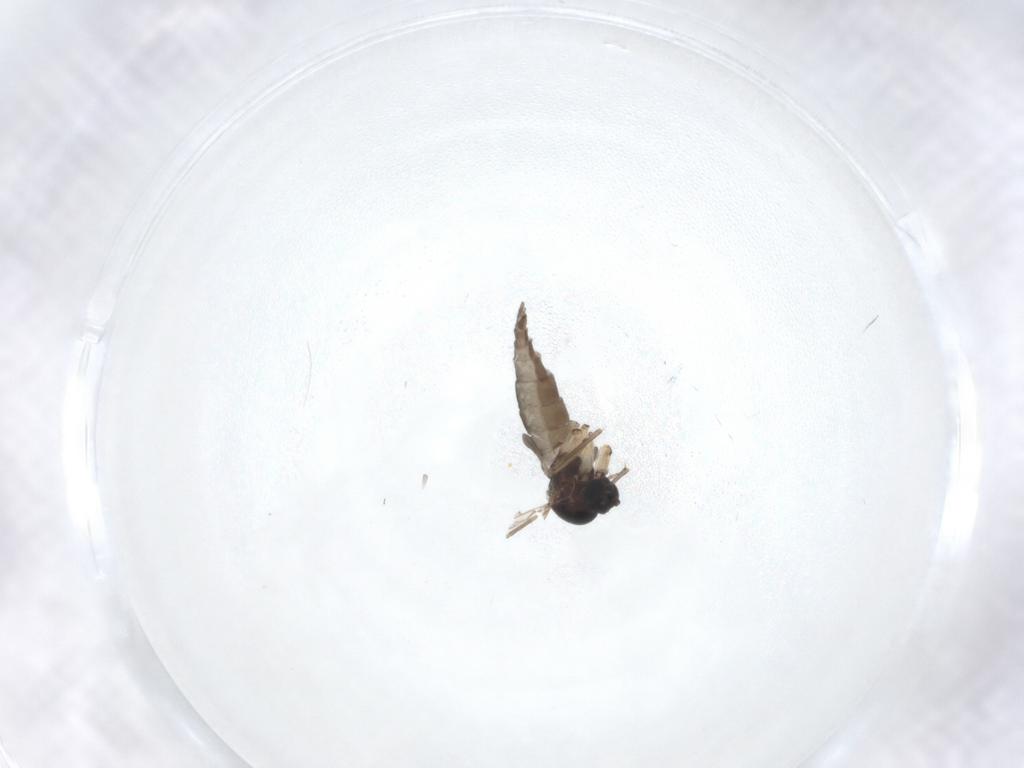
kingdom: Animalia
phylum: Arthropoda
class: Insecta
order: Diptera
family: Sciaridae
